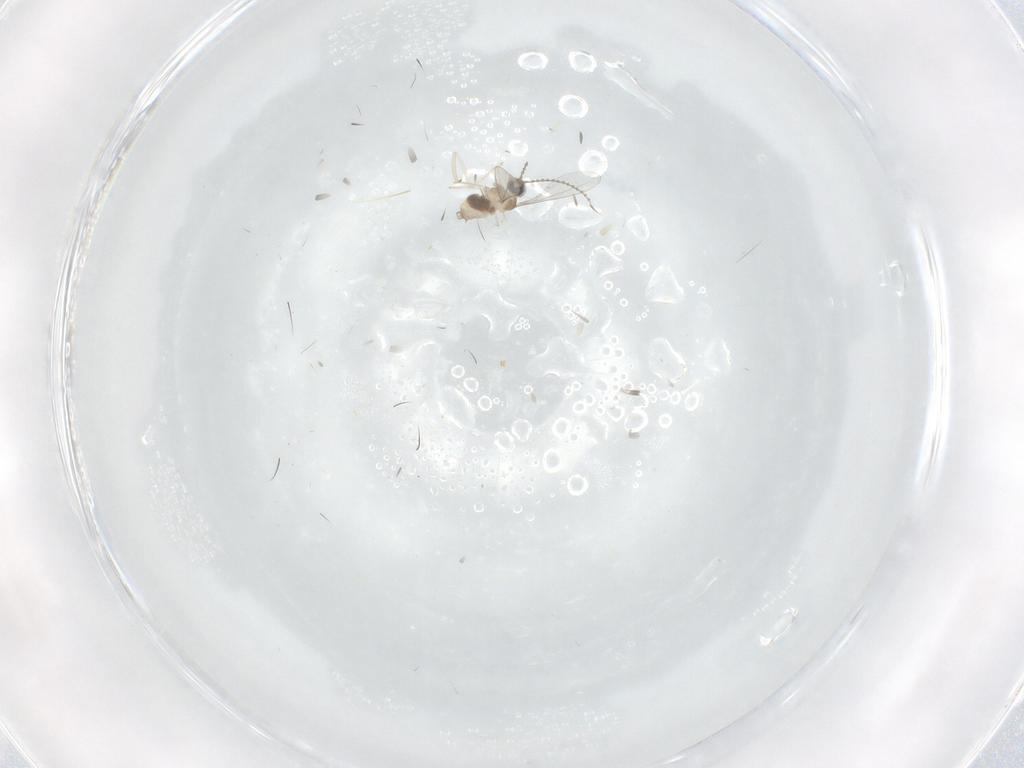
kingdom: Animalia
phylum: Arthropoda
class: Insecta
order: Diptera
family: Cecidomyiidae
